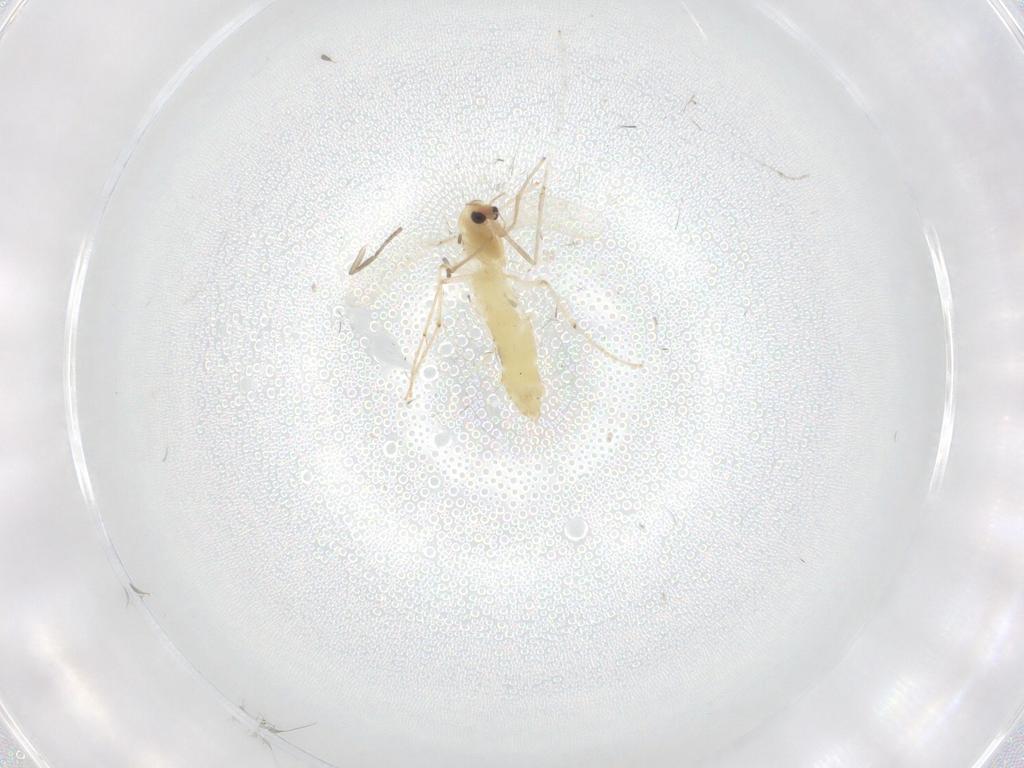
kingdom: Animalia
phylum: Arthropoda
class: Insecta
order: Diptera
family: Chironomidae
